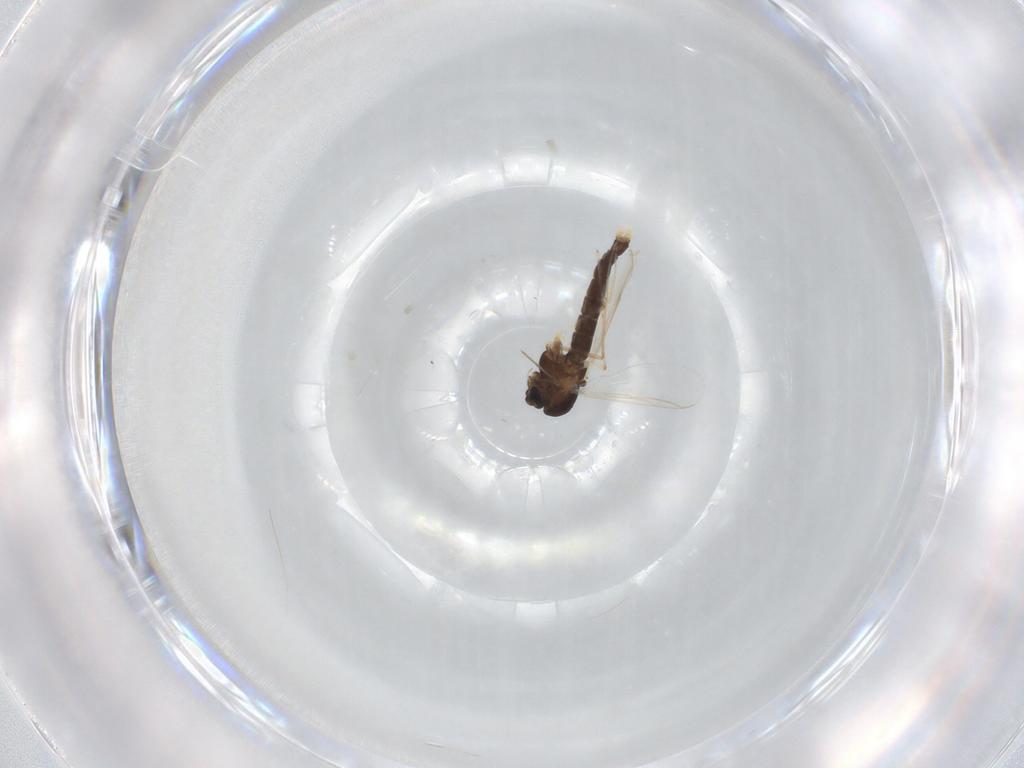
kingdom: Animalia
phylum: Arthropoda
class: Insecta
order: Diptera
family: Chironomidae
